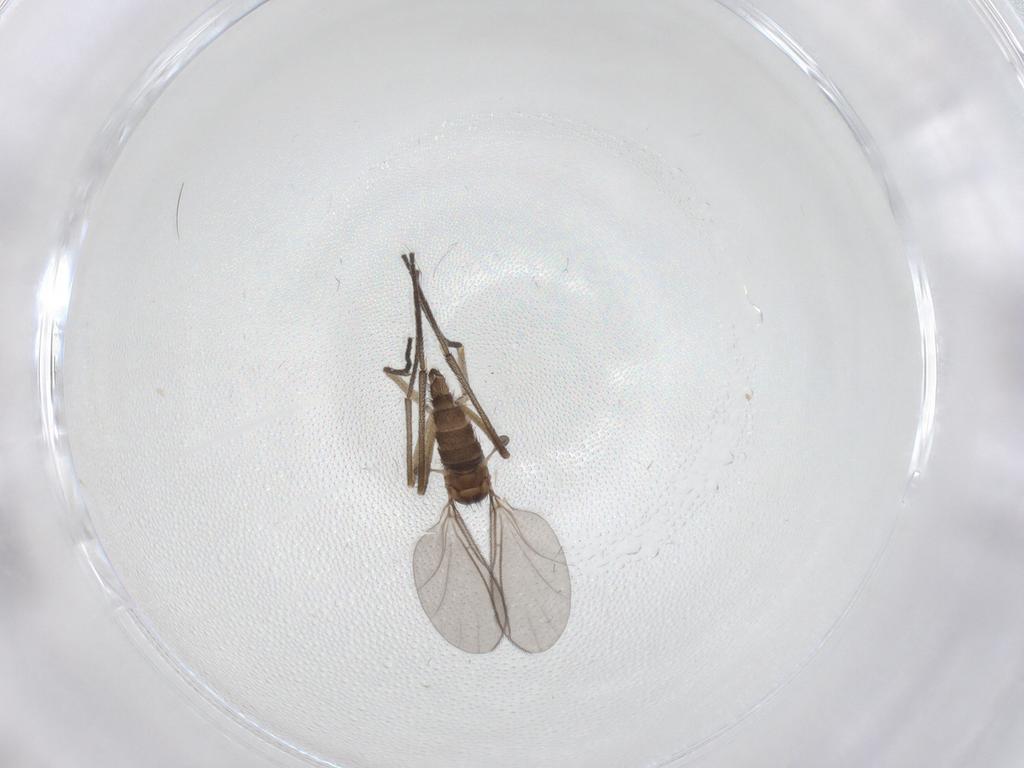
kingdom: Animalia
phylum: Arthropoda
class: Insecta
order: Diptera
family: Sciaridae
